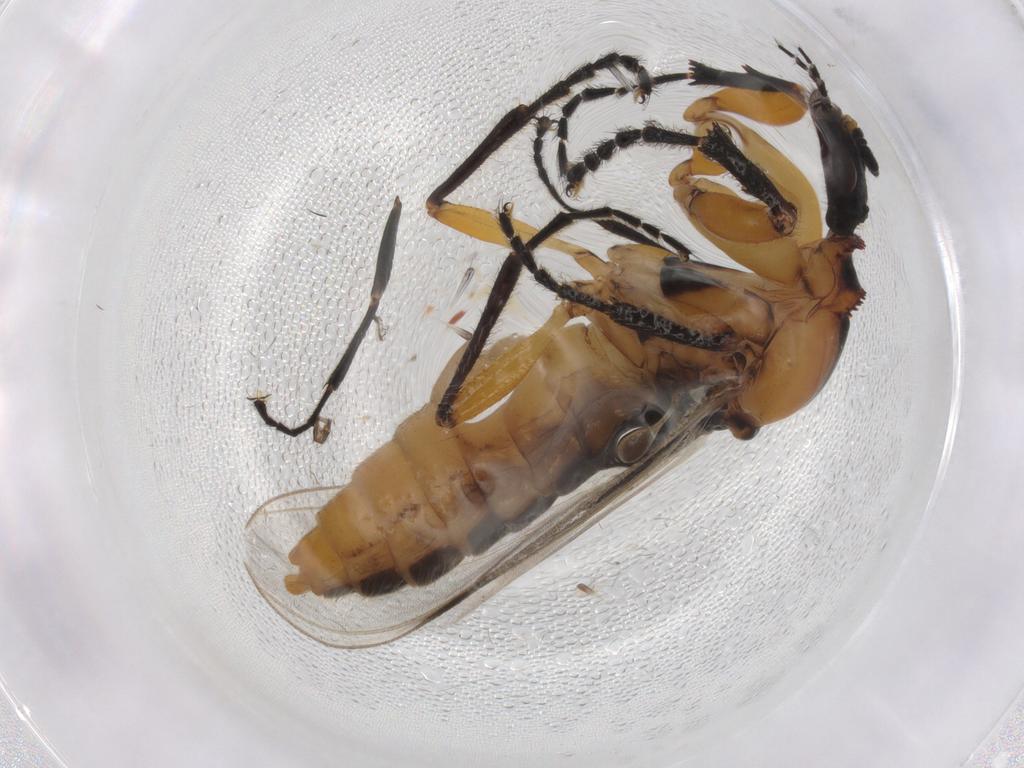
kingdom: Animalia
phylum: Arthropoda
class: Insecta
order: Diptera
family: Bibionidae
